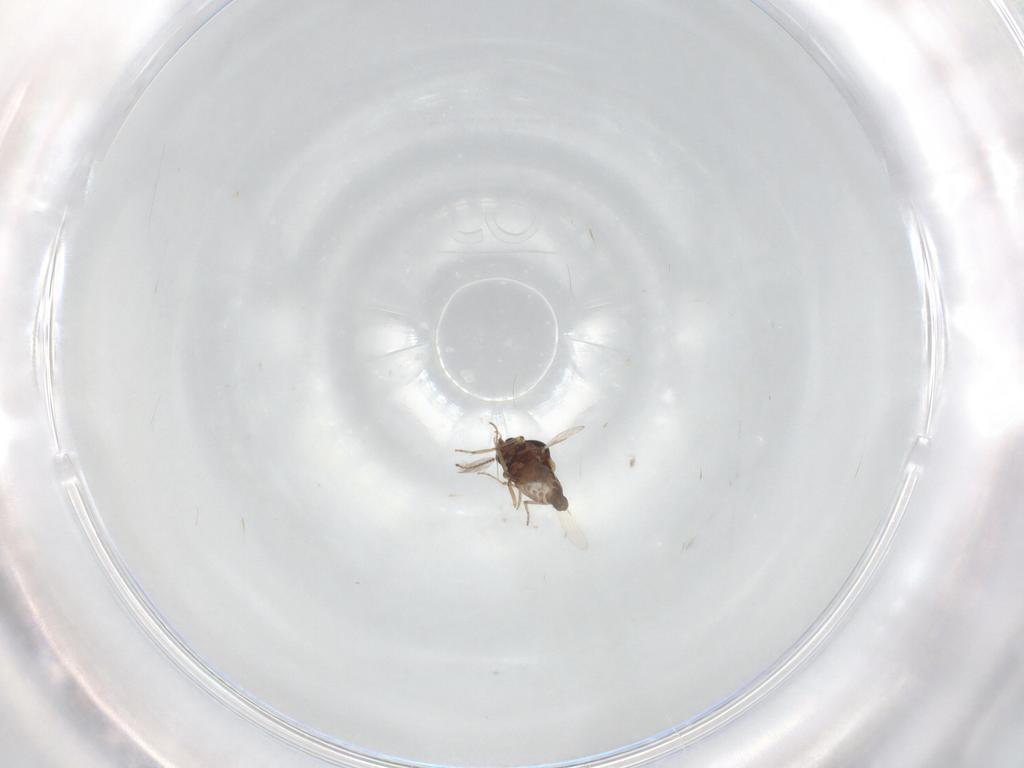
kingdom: Animalia
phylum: Arthropoda
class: Insecta
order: Diptera
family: Ceratopogonidae
